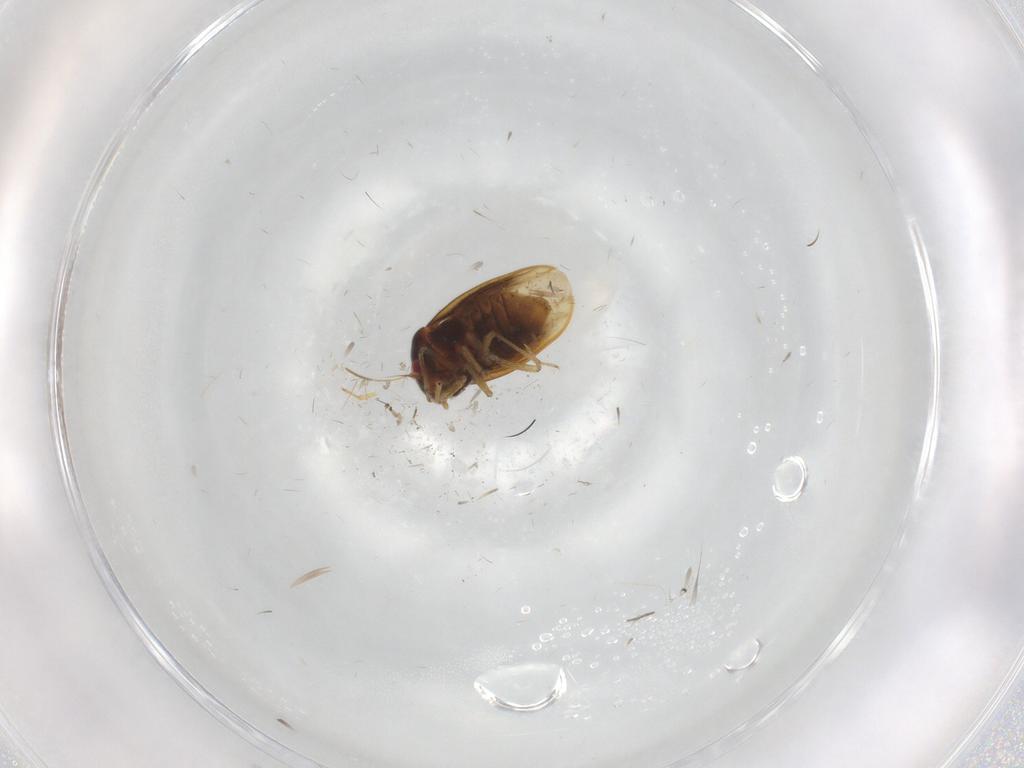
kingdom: Animalia
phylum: Arthropoda
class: Insecta
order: Hemiptera
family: Schizopteridae
